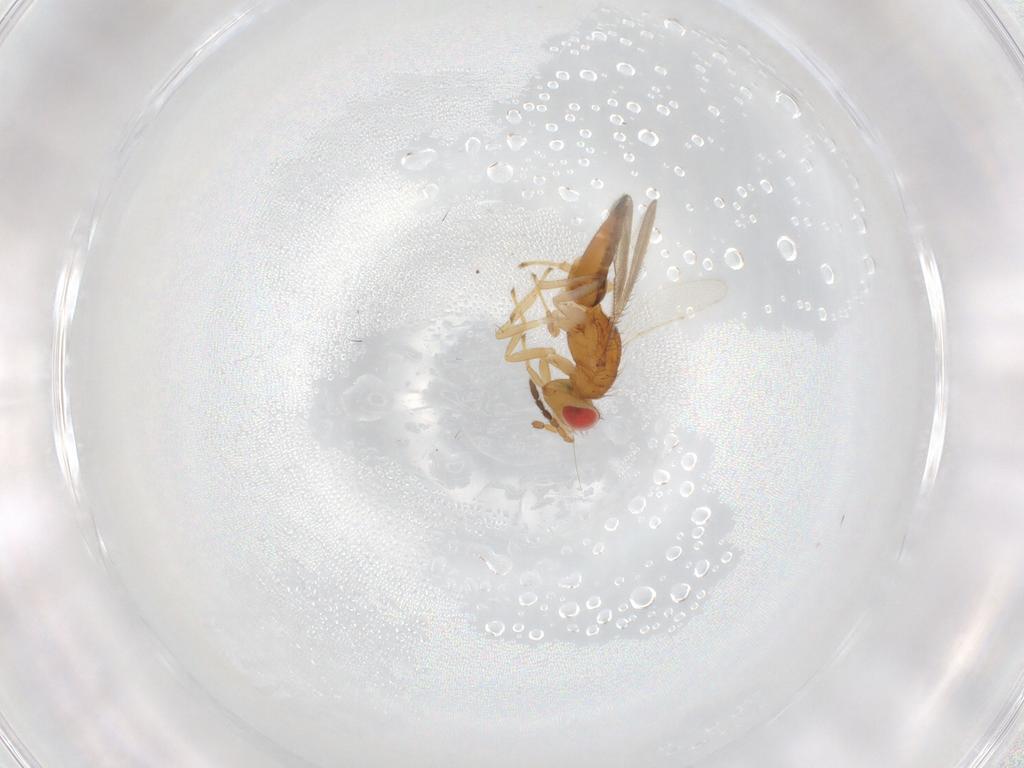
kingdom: Animalia
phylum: Arthropoda
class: Insecta
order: Hymenoptera
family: Eulophidae
